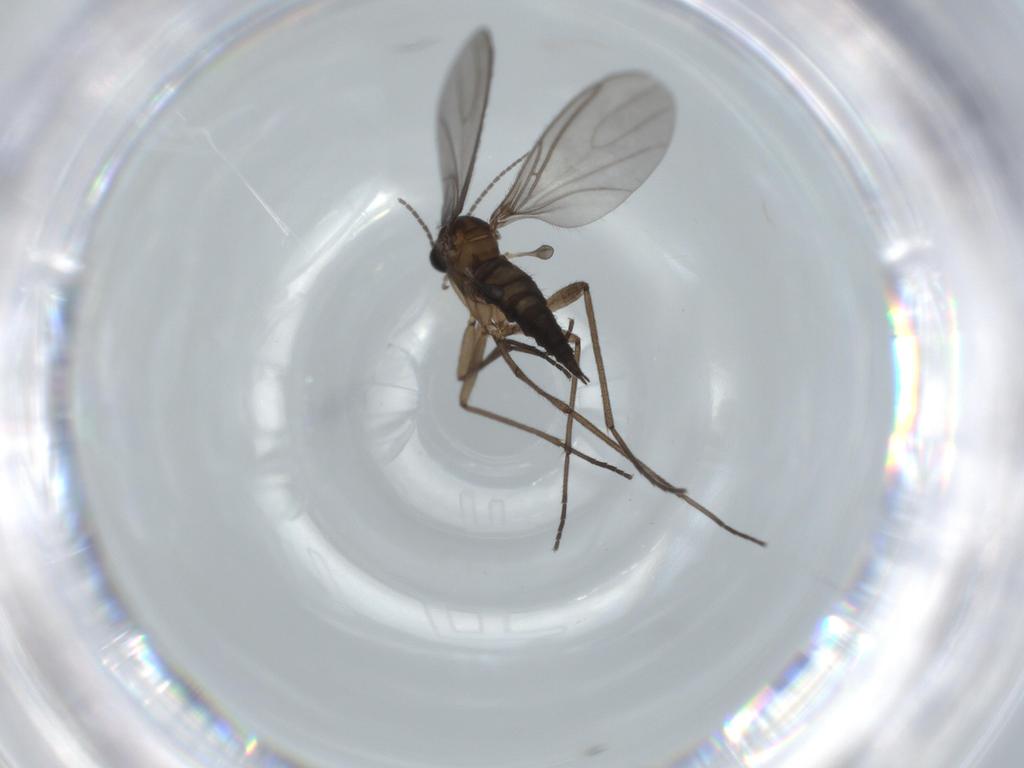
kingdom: Animalia
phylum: Arthropoda
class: Insecta
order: Diptera
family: Sciaridae
